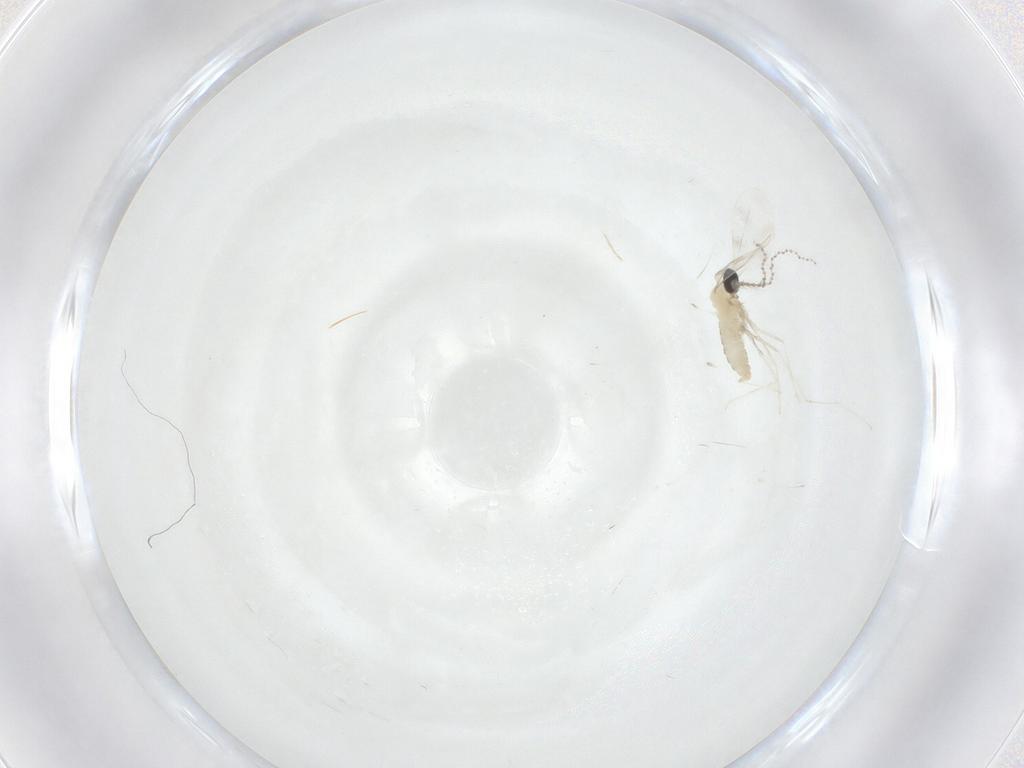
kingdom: Animalia
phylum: Arthropoda
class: Insecta
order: Diptera
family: Cecidomyiidae
